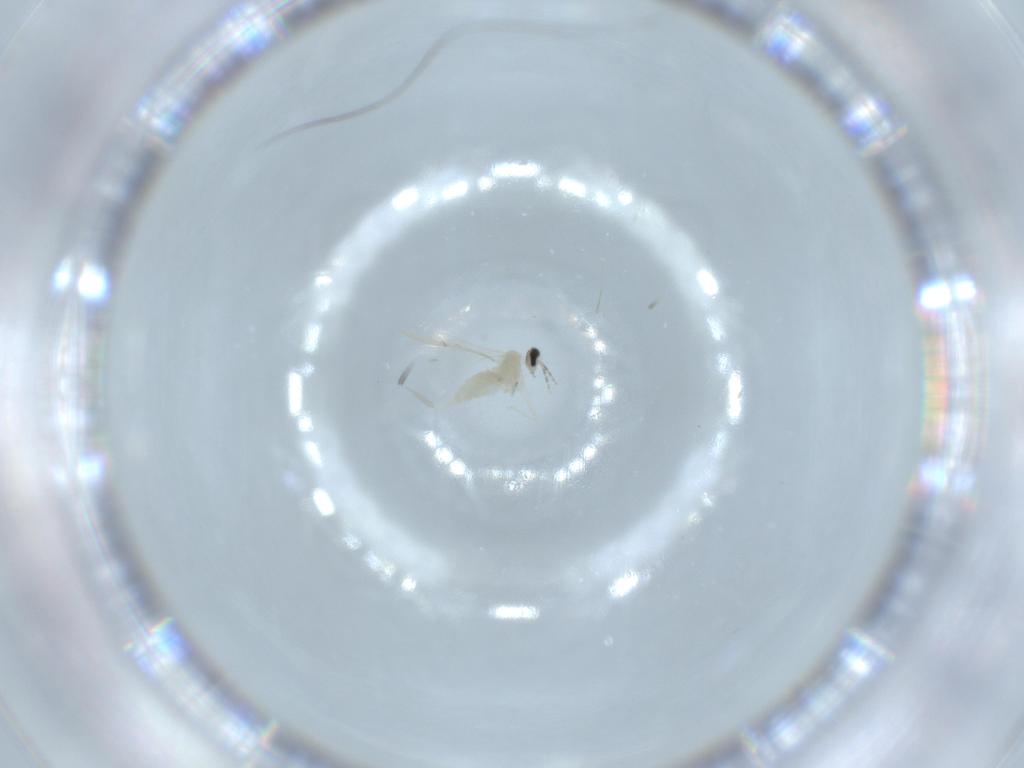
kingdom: Animalia
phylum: Arthropoda
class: Insecta
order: Diptera
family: Cecidomyiidae
